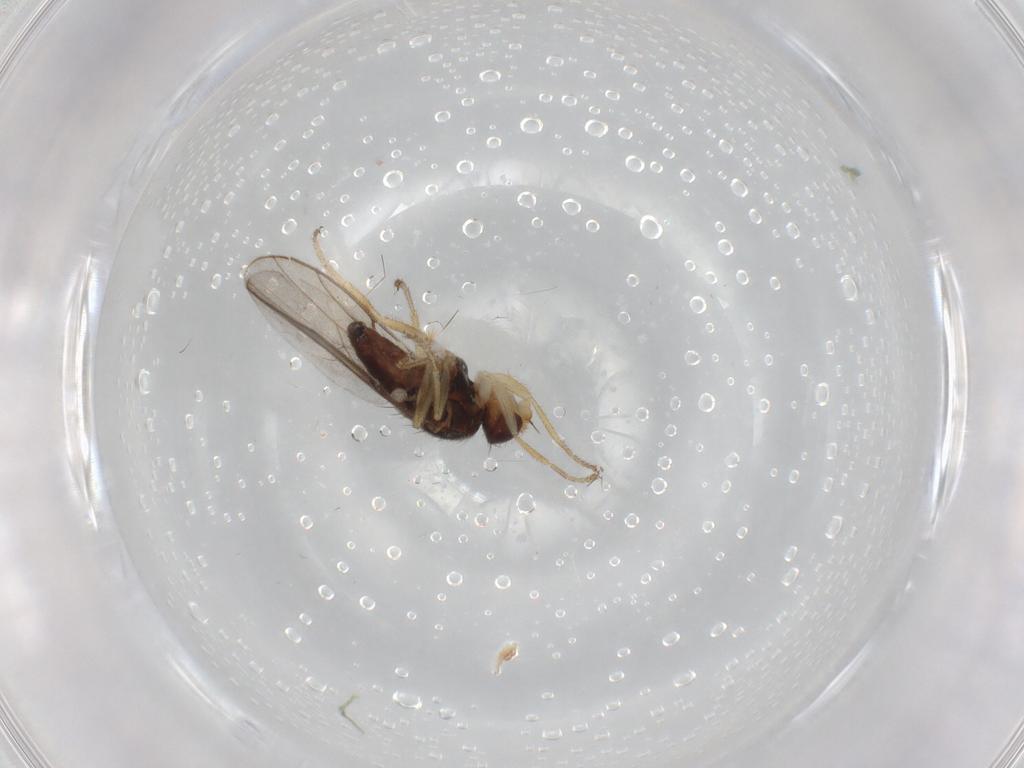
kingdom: Animalia
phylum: Arthropoda
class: Insecta
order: Diptera
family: Chloropidae
